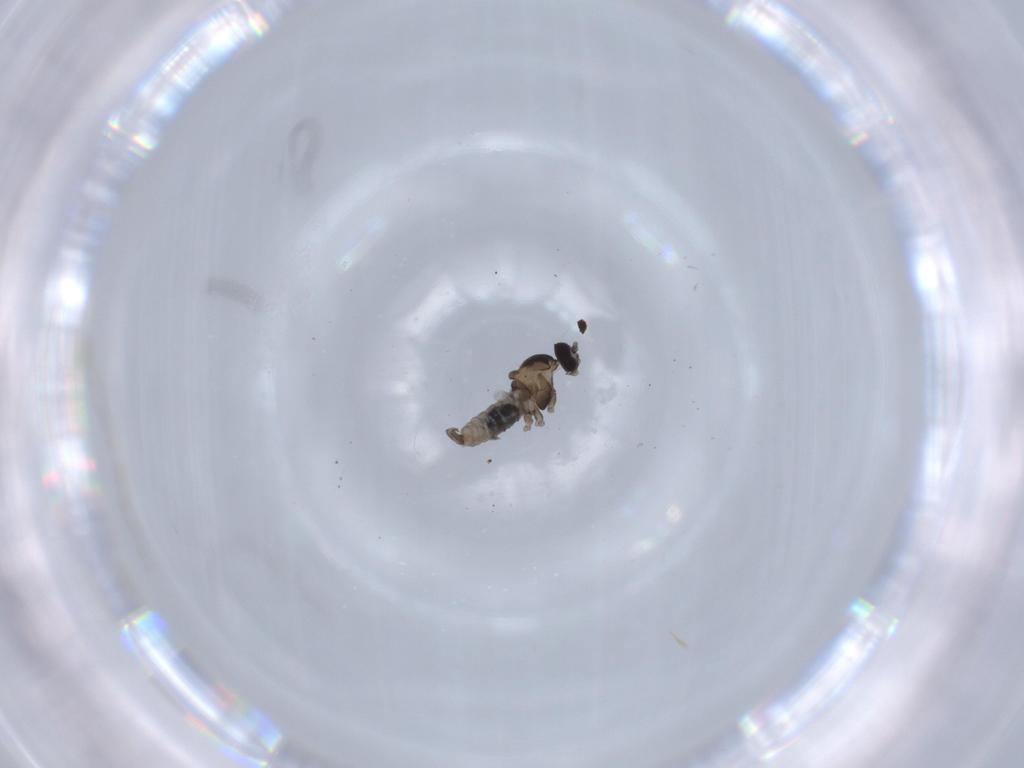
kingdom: Animalia
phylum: Arthropoda
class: Insecta
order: Diptera
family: Cecidomyiidae
